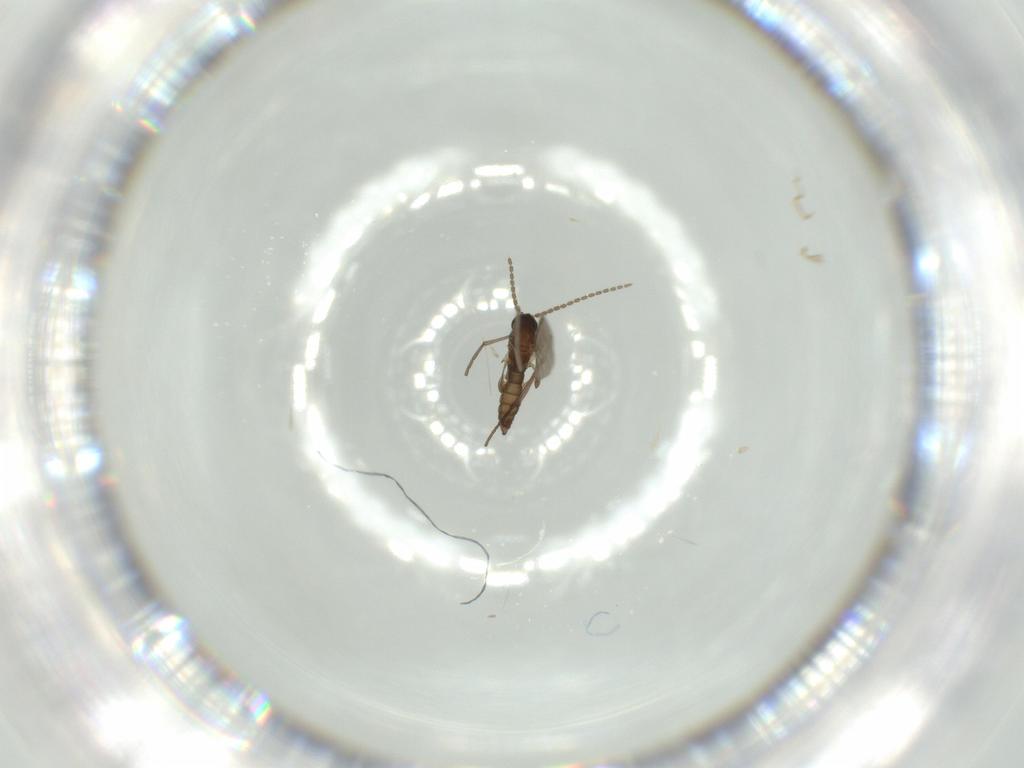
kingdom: Animalia
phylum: Arthropoda
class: Insecta
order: Diptera
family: Sciaridae
